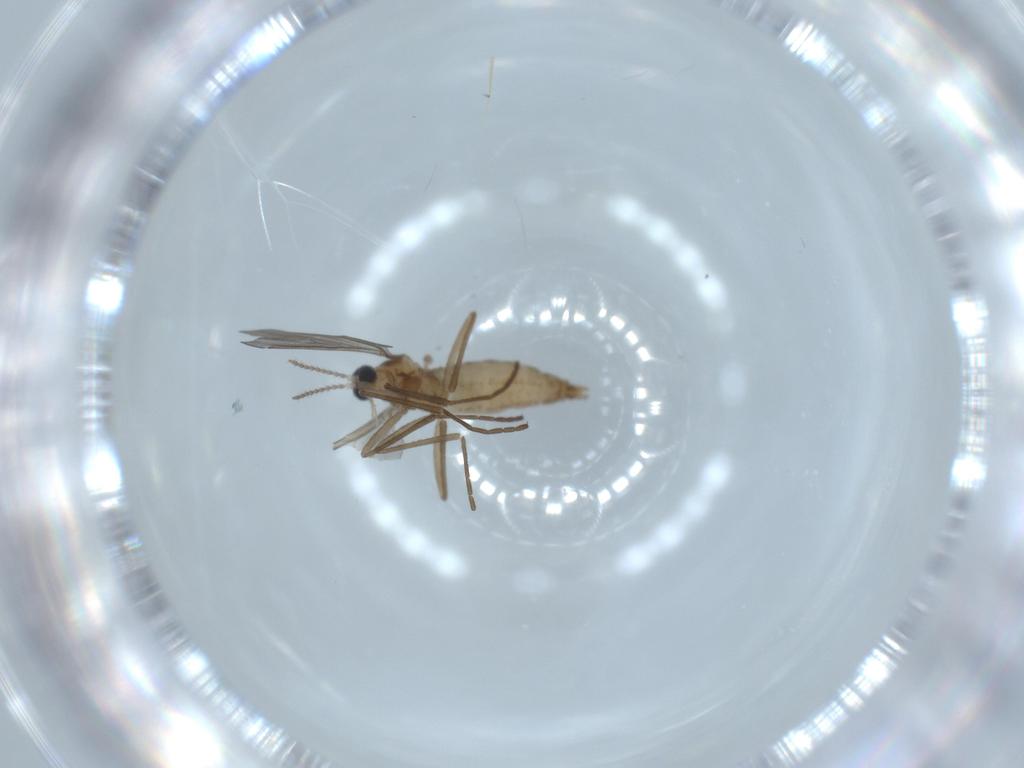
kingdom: Animalia
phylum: Arthropoda
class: Insecta
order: Diptera
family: Cecidomyiidae
